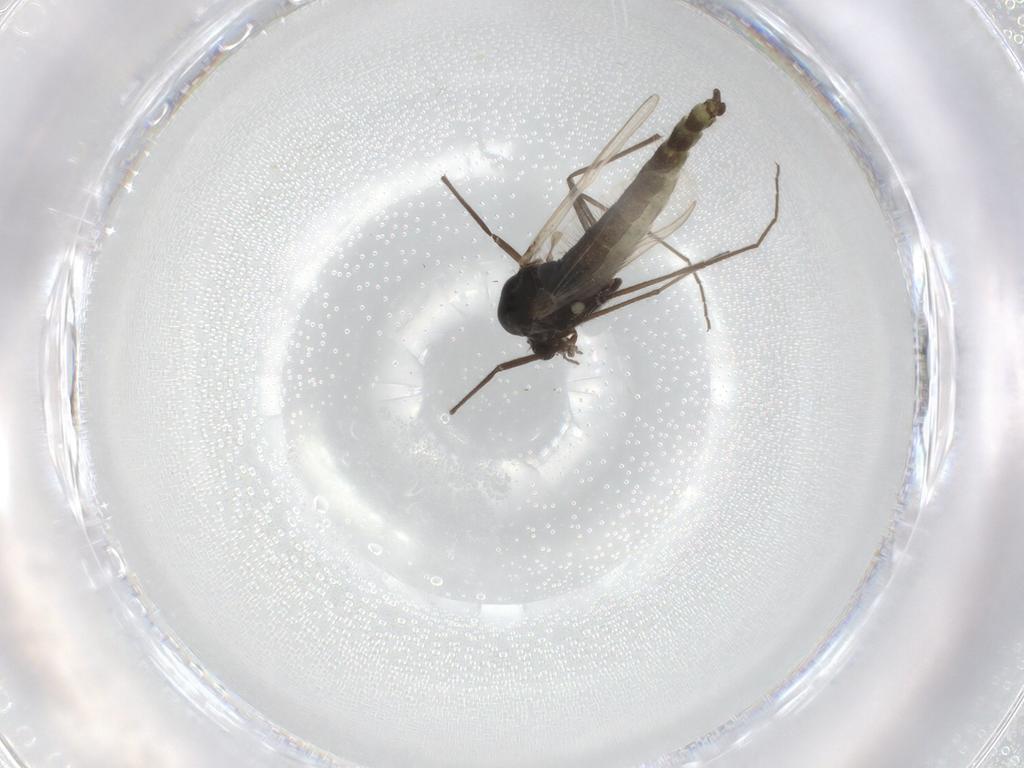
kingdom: Animalia
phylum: Arthropoda
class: Insecta
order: Diptera
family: Chironomidae
